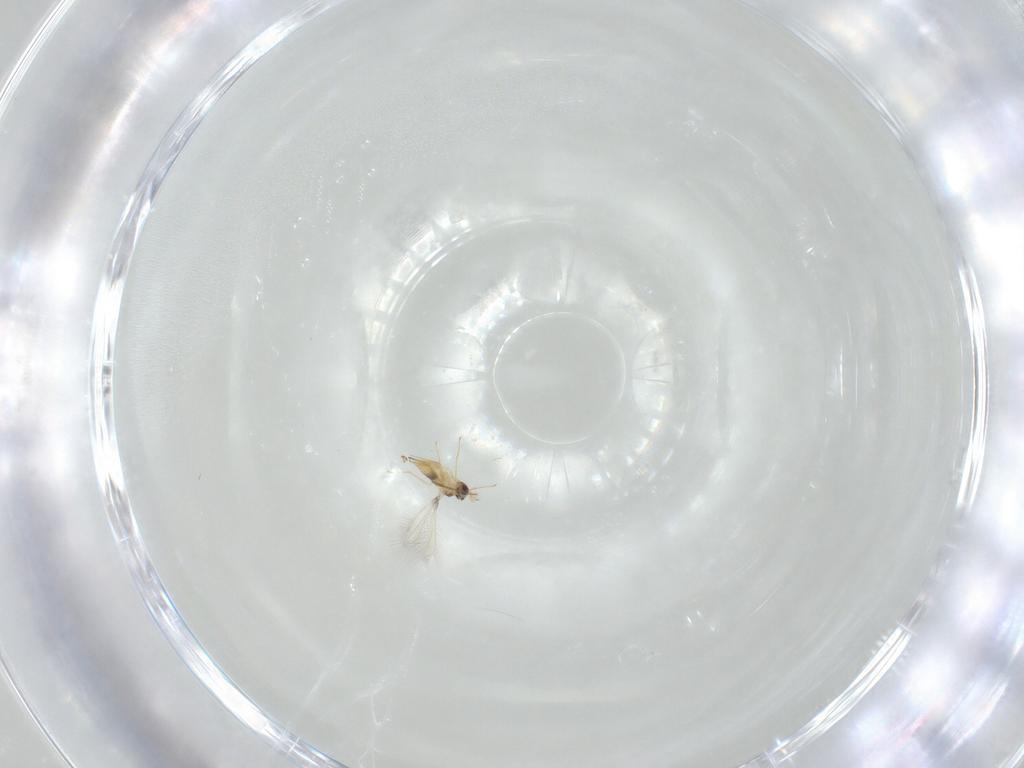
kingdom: Animalia
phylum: Arthropoda
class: Insecta
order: Hymenoptera
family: Mymaridae
